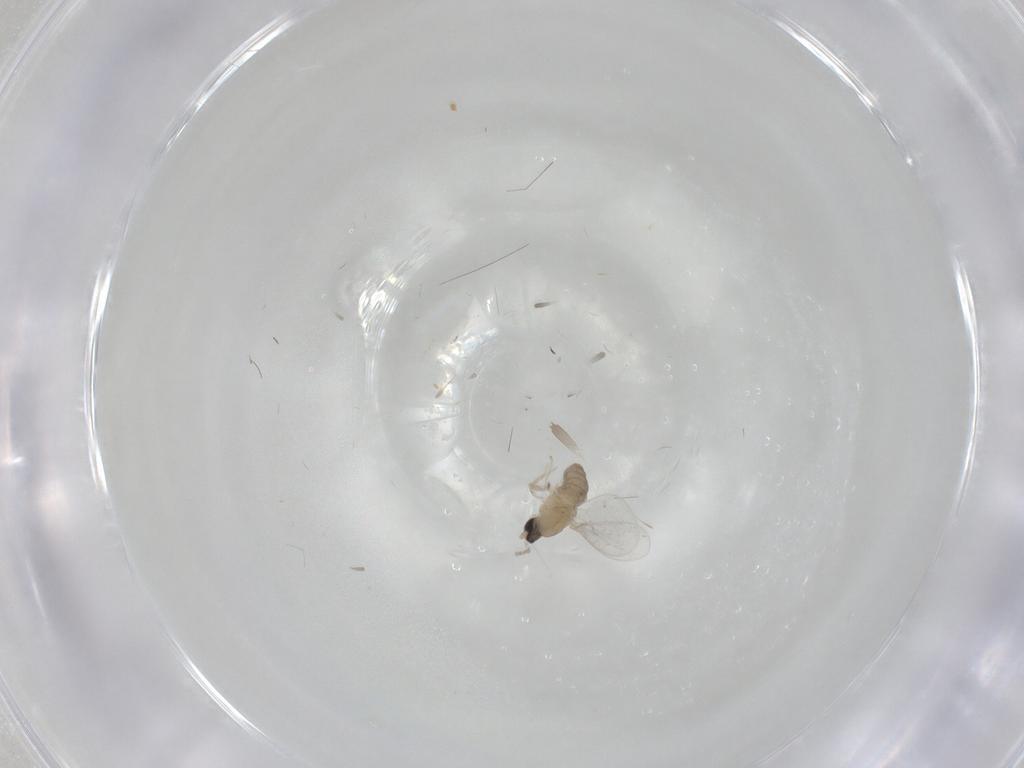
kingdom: Animalia
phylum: Arthropoda
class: Insecta
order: Diptera
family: Cecidomyiidae
